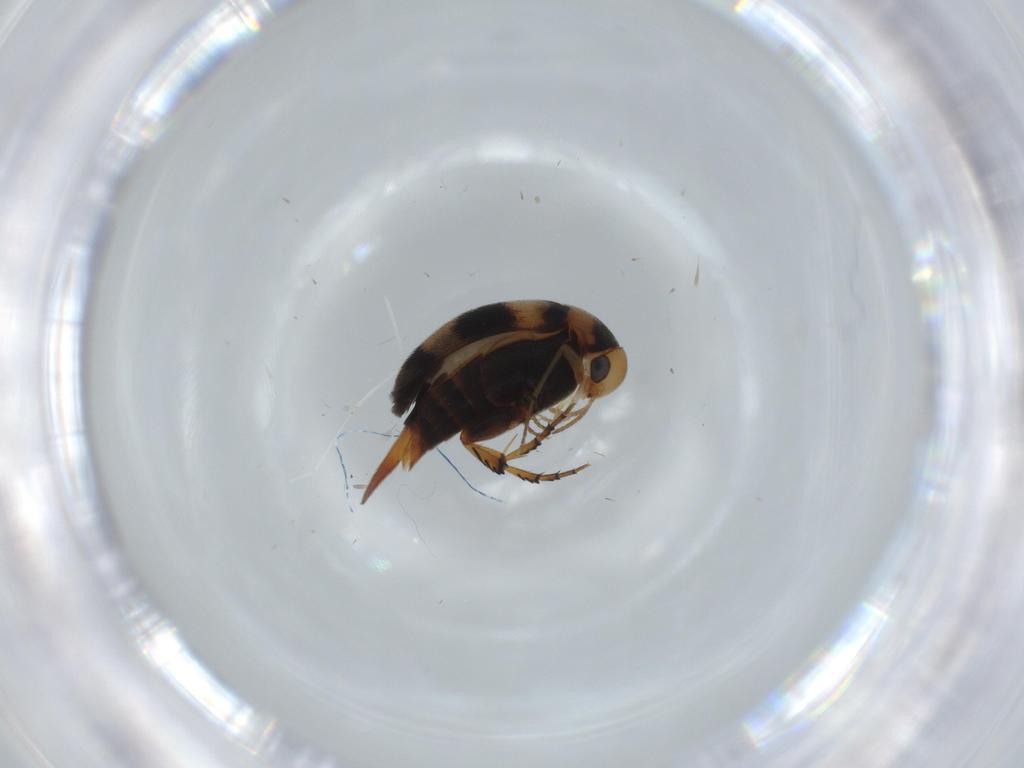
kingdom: Animalia
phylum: Arthropoda
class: Insecta
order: Coleoptera
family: Mordellidae
